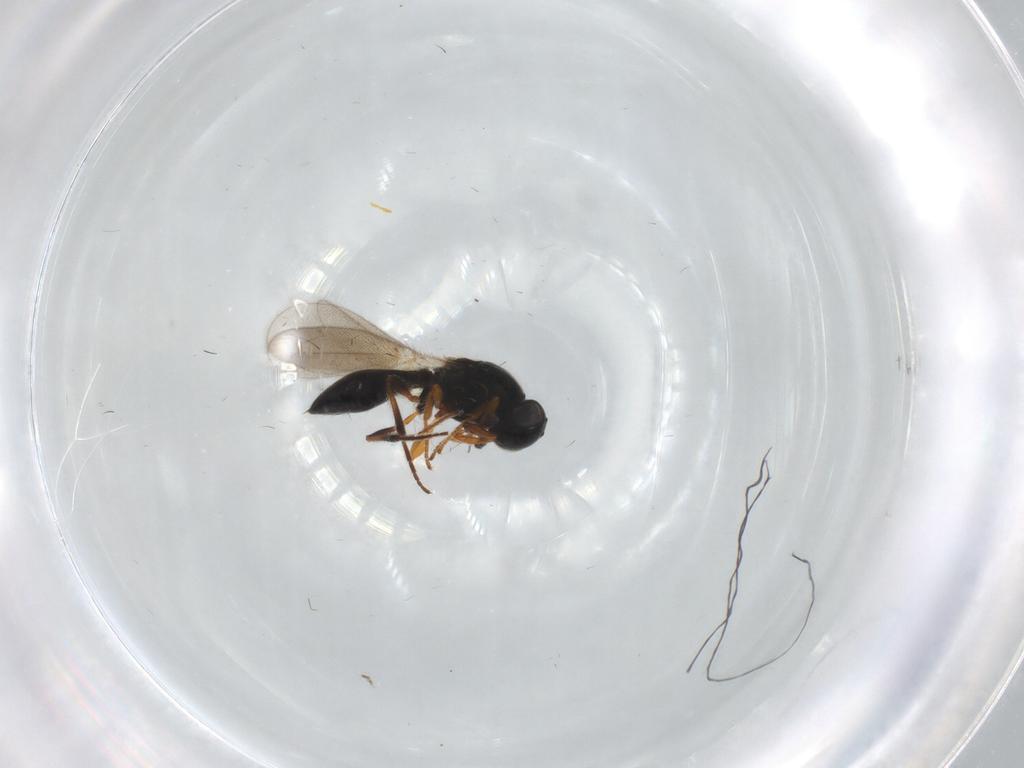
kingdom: Animalia
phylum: Arthropoda
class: Insecta
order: Hymenoptera
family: Platygastridae
